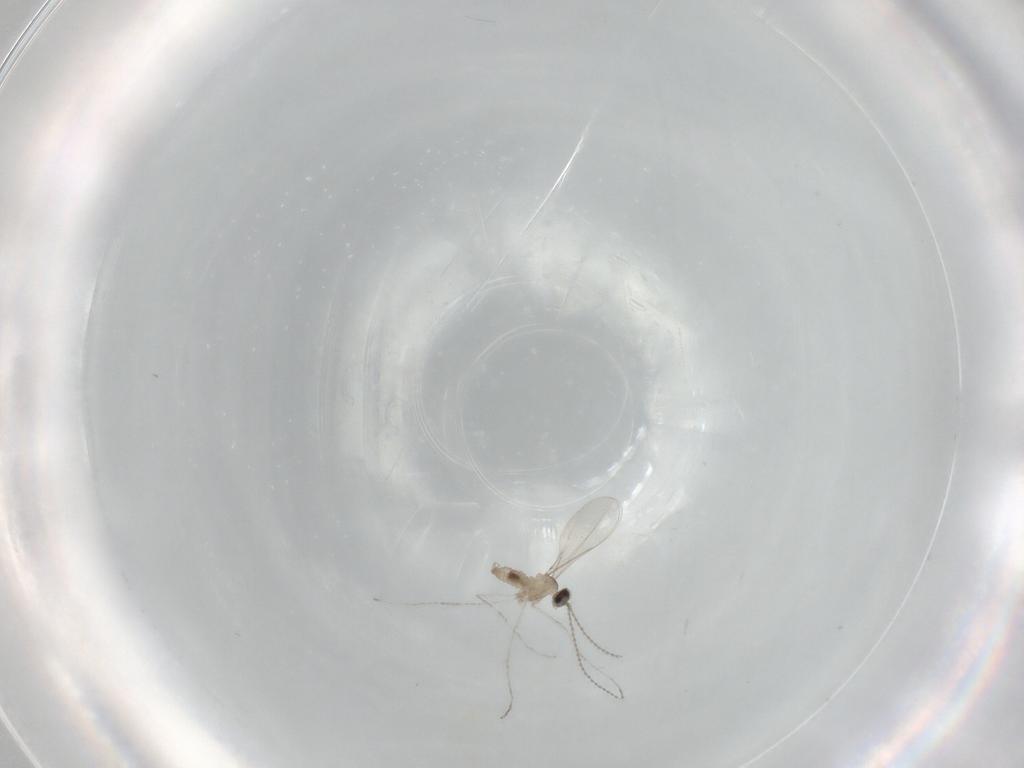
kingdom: Animalia
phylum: Arthropoda
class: Insecta
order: Diptera
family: Cecidomyiidae
